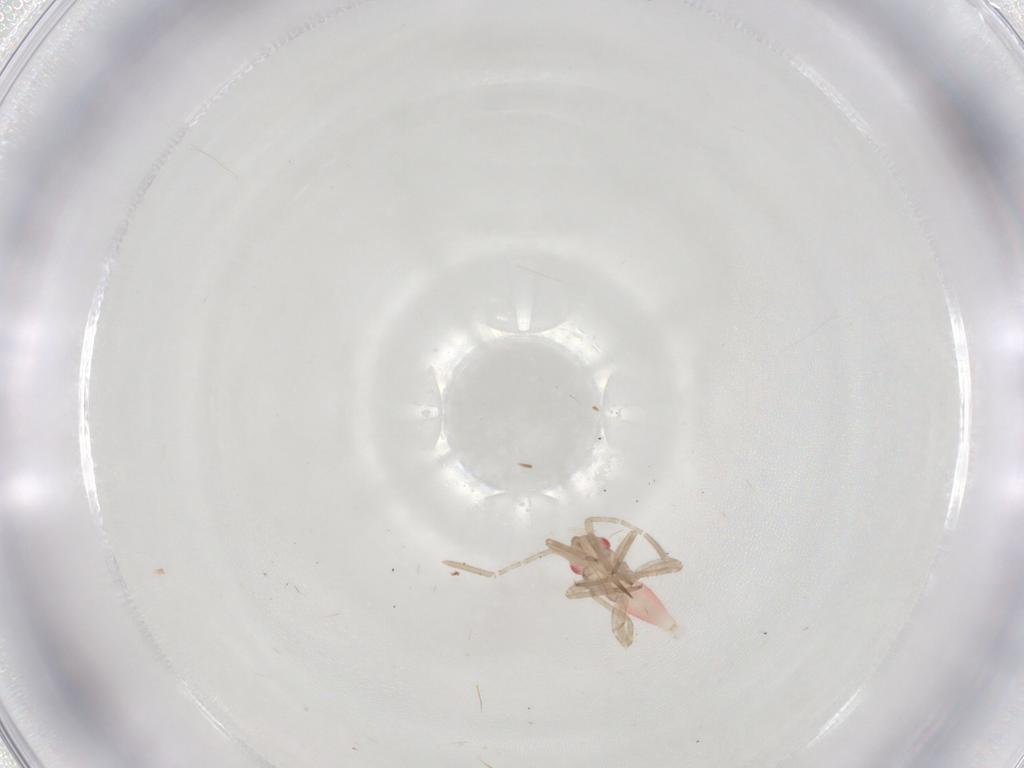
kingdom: Animalia
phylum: Arthropoda
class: Insecta
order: Hemiptera
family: Miridae
